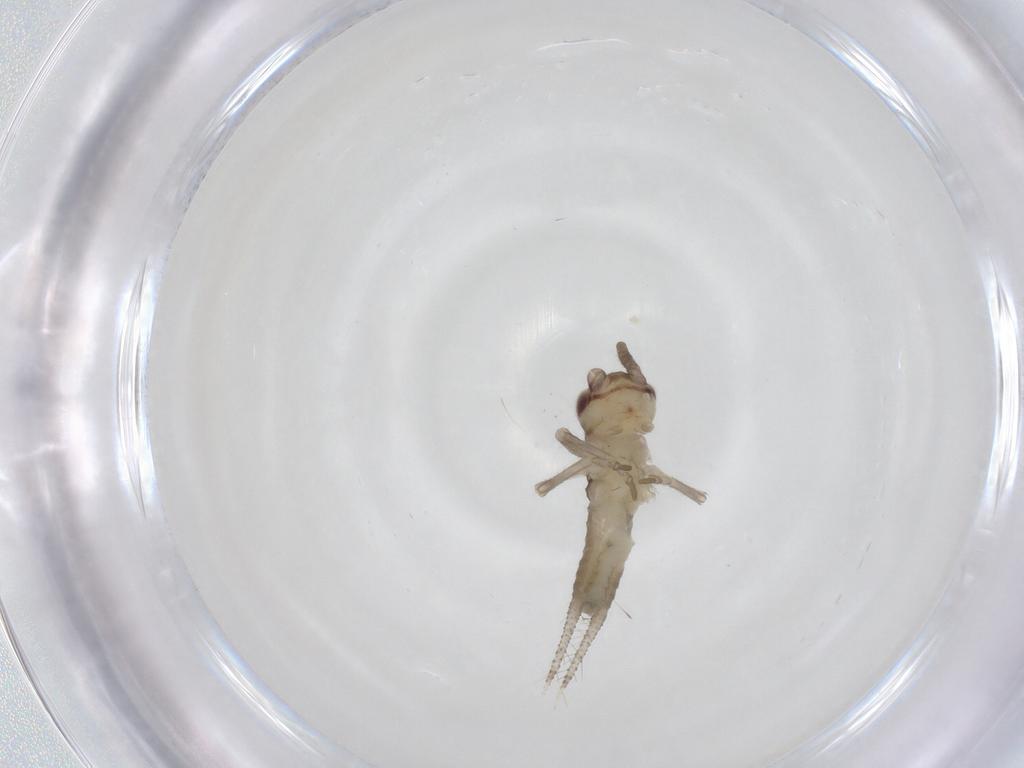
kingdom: Animalia
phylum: Arthropoda
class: Insecta
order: Orthoptera
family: Gryllidae
